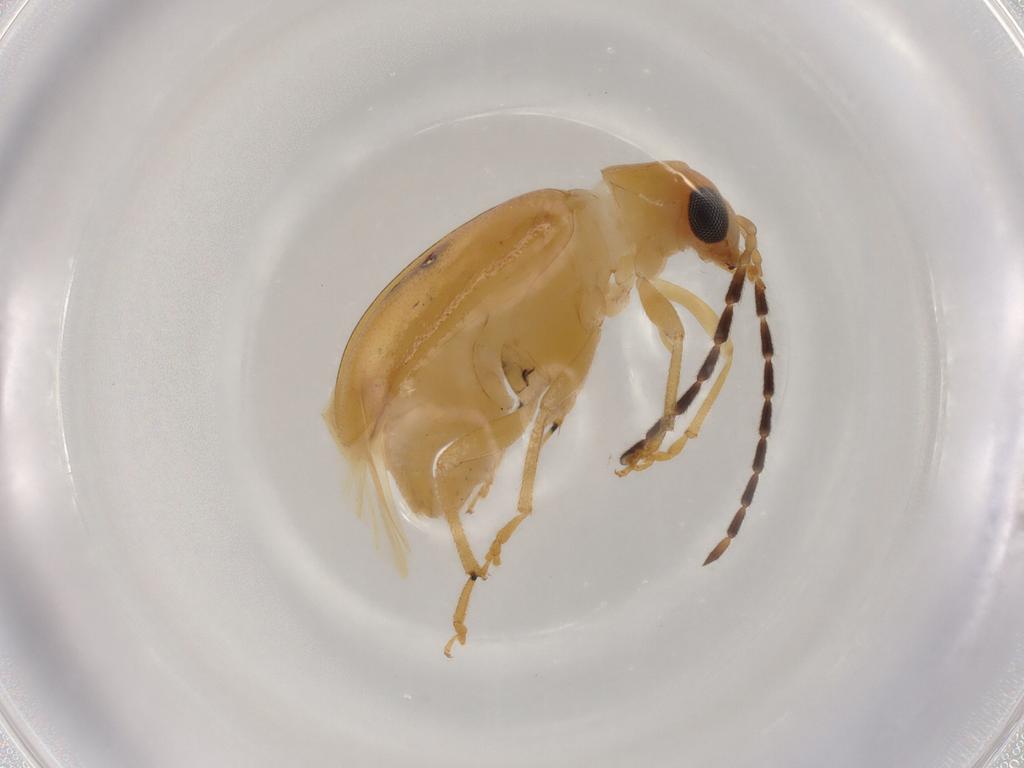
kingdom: Animalia
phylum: Arthropoda
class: Insecta
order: Coleoptera
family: Chrysomelidae
